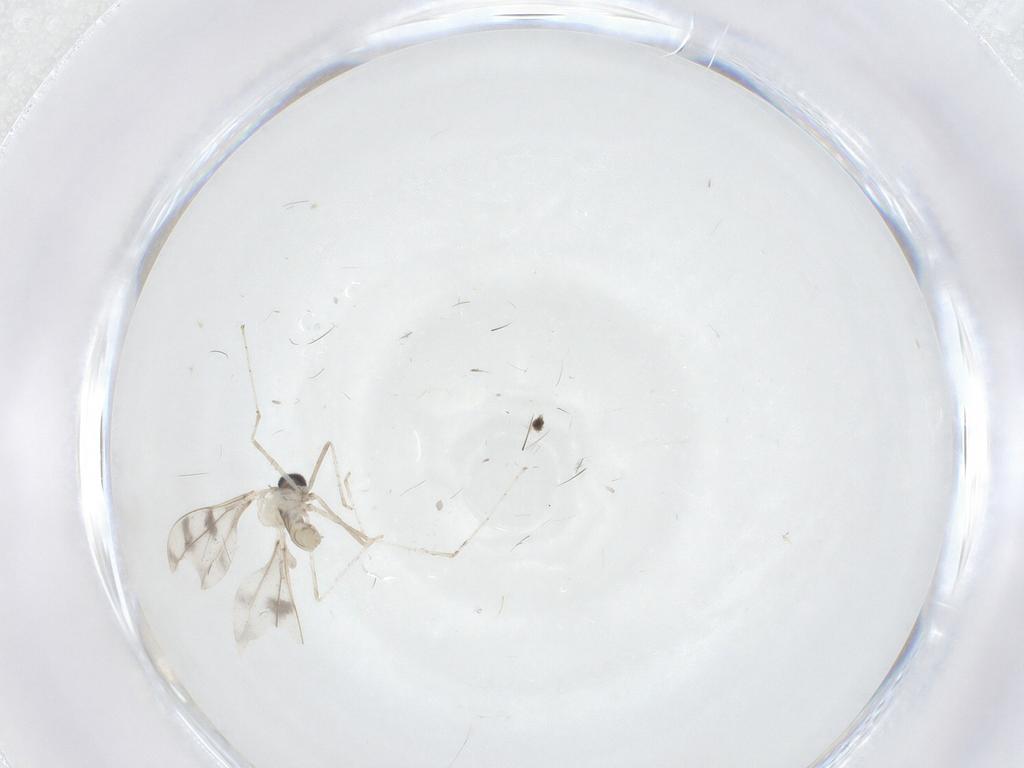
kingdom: Animalia
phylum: Arthropoda
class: Insecta
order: Diptera
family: Cecidomyiidae
